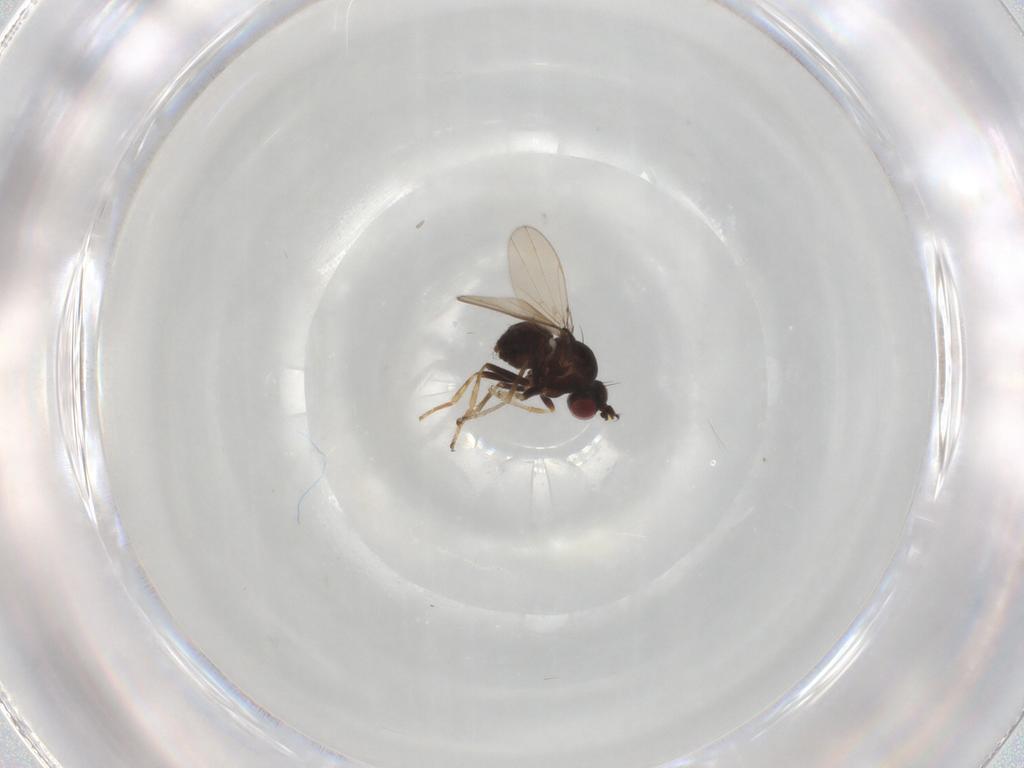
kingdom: Animalia
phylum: Arthropoda
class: Insecta
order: Diptera
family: Ephydridae
